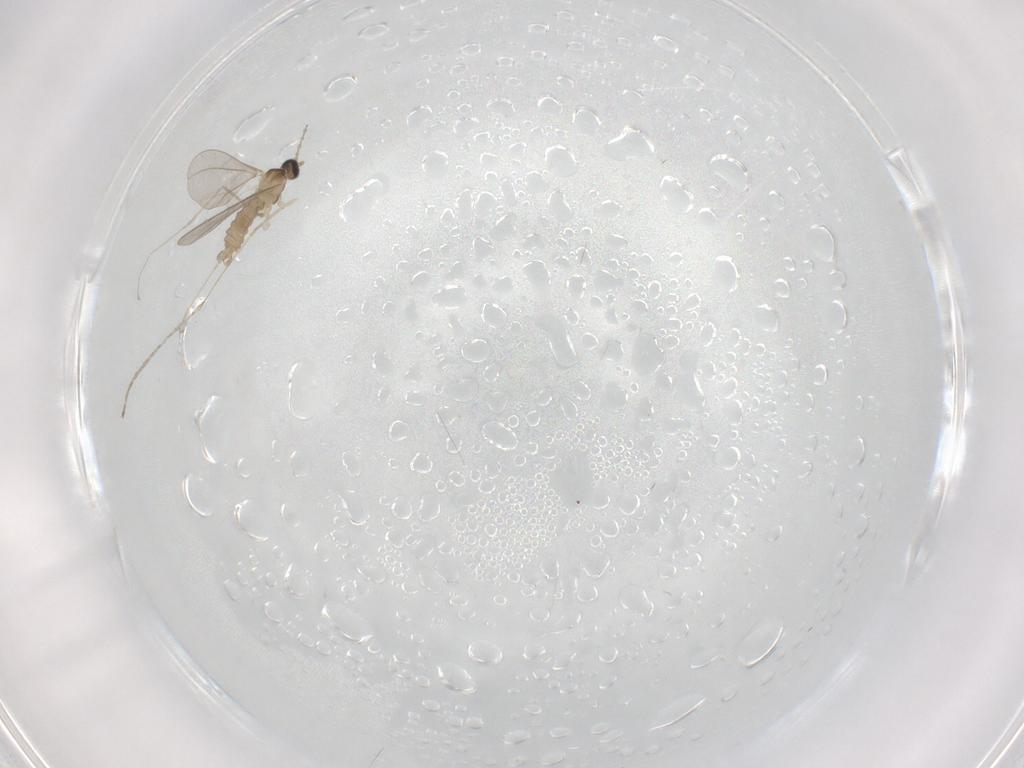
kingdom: Animalia
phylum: Arthropoda
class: Insecta
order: Diptera
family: Cecidomyiidae
